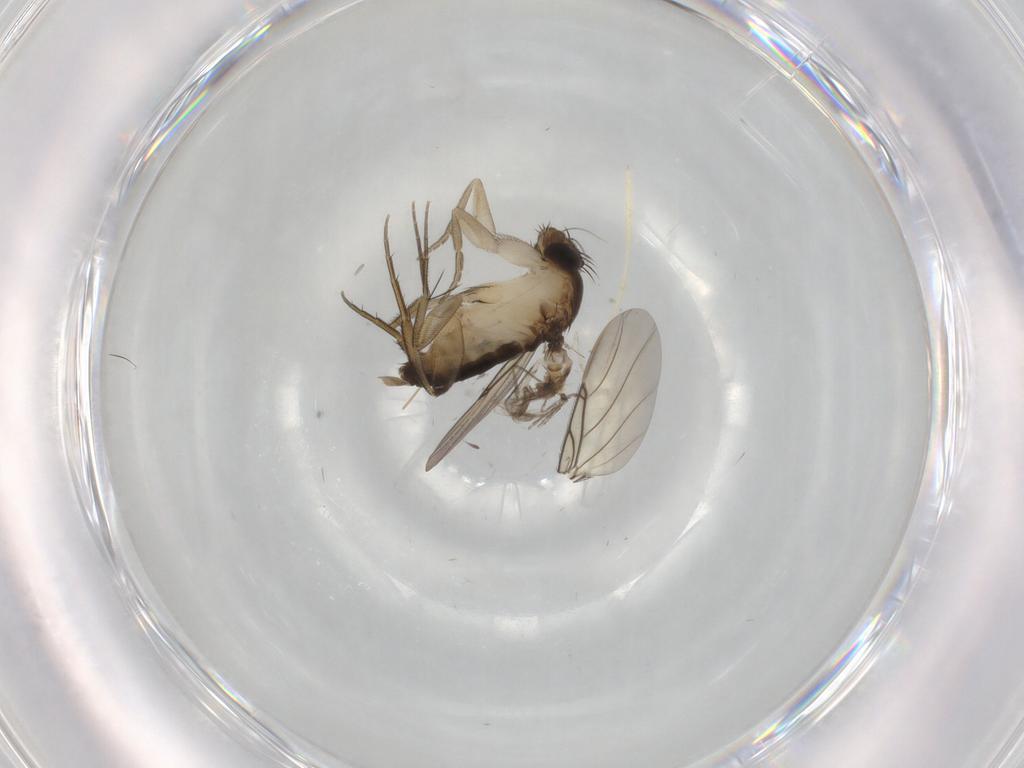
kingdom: Animalia
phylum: Arthropoda
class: Insecta
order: Diptera
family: Phoridae
